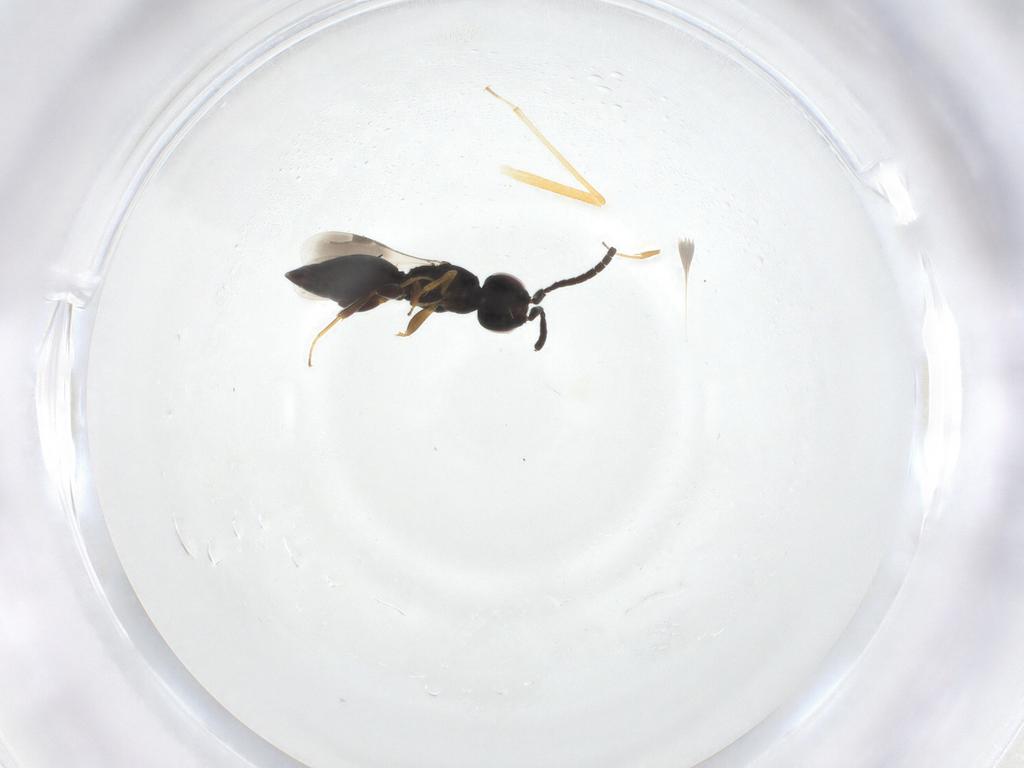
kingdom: Animalia
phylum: Arthropoda
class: Insecta
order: Hymenoptera
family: Megaspilidae
